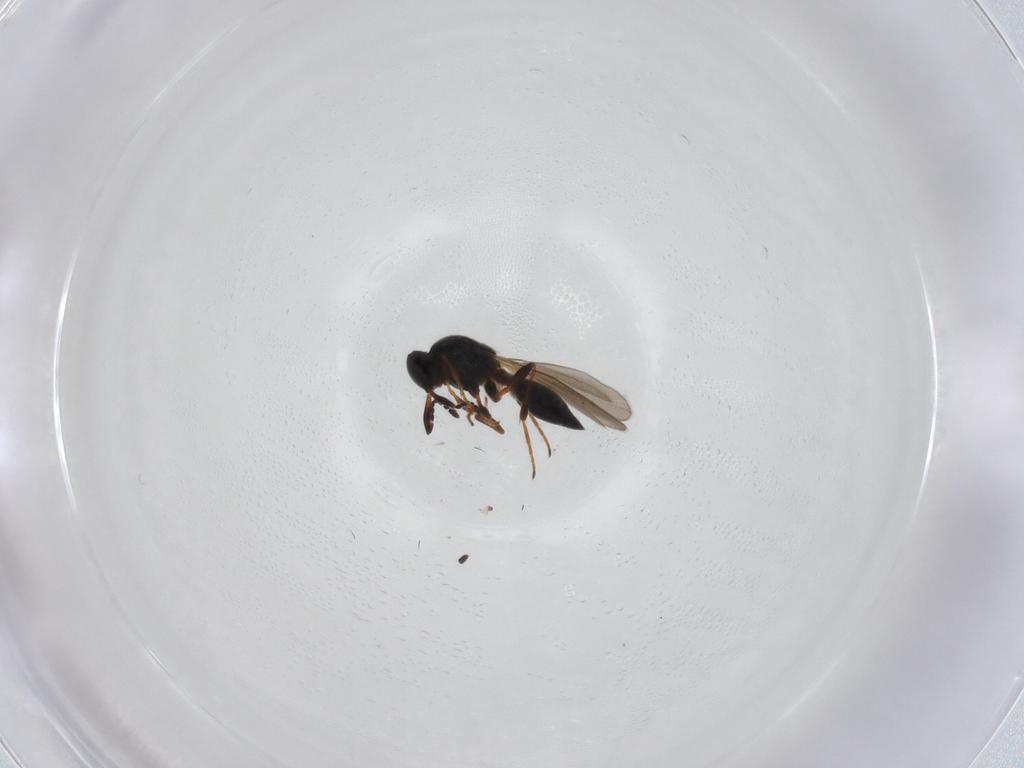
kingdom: Animalia
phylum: Arthropoda
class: Insecta
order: Hymenoptera
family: Platygastridae
